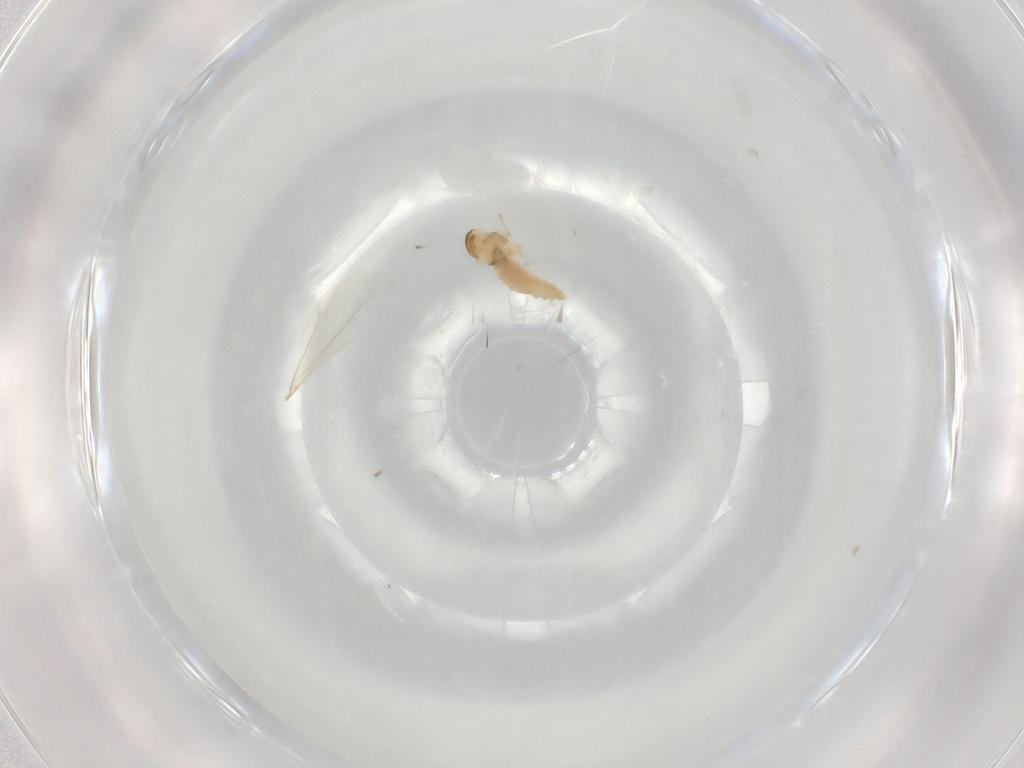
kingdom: Animalia
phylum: Arthropoda
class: Insecta
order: Diptera
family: Cecidomyiidae
